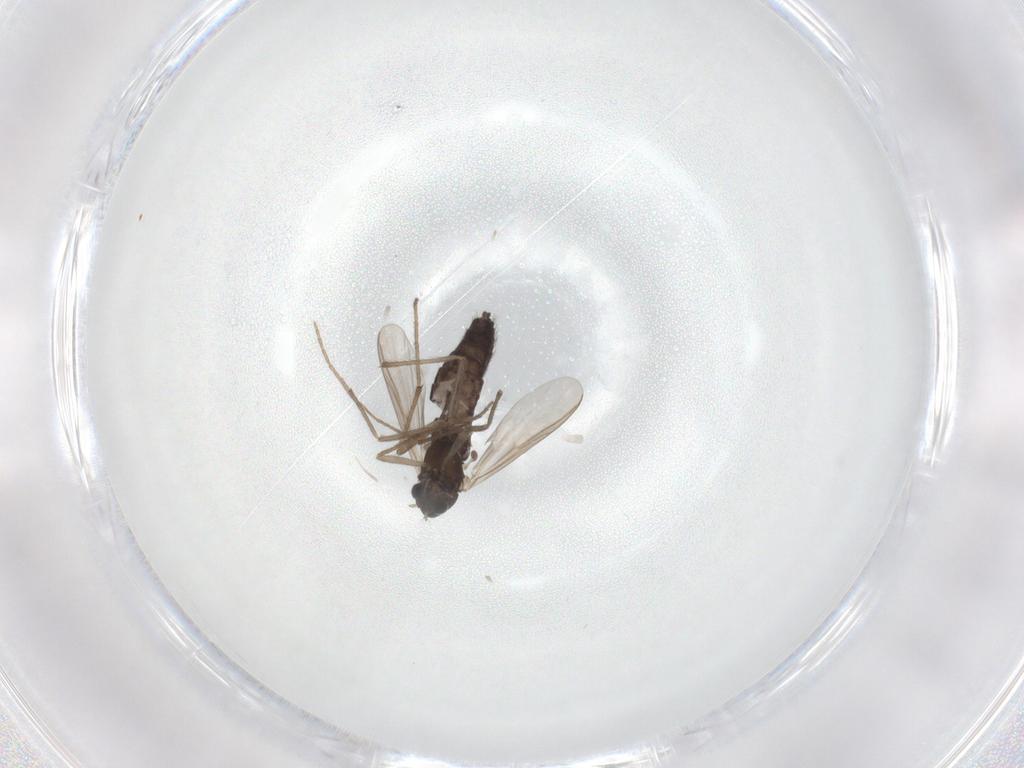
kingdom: Animalia
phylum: Arthropoda
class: Insecta
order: Diptera
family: Chironomidae
